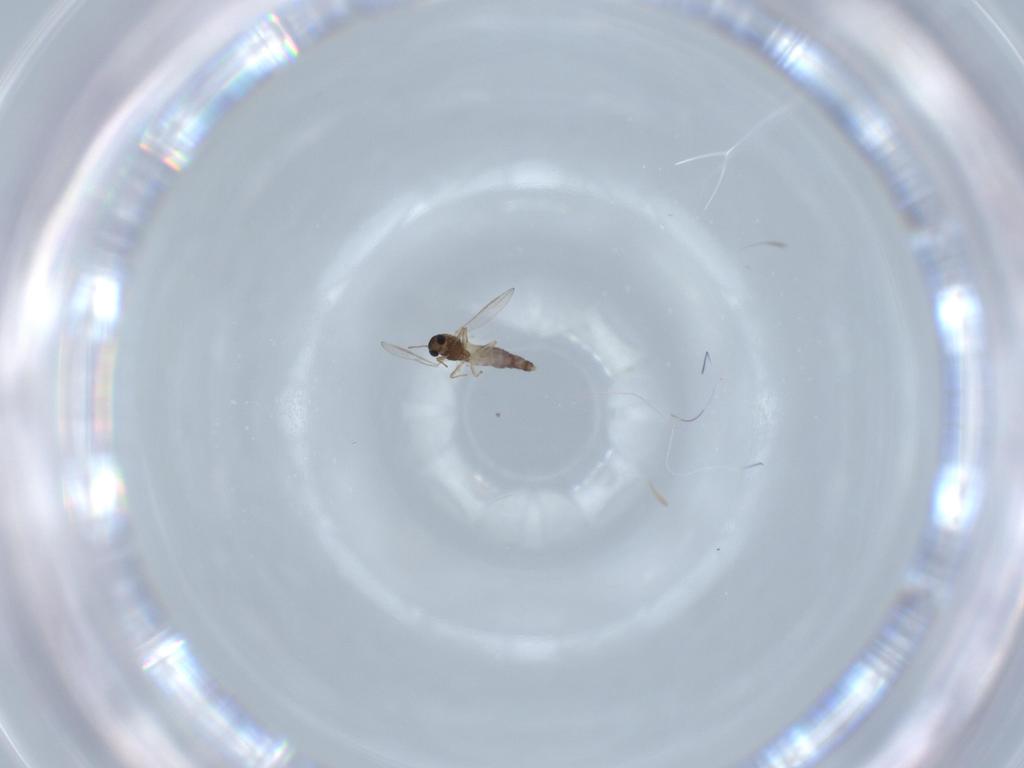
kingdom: Animalia
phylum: Arthropoda
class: Insecta
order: Diptera
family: Chironomidae
